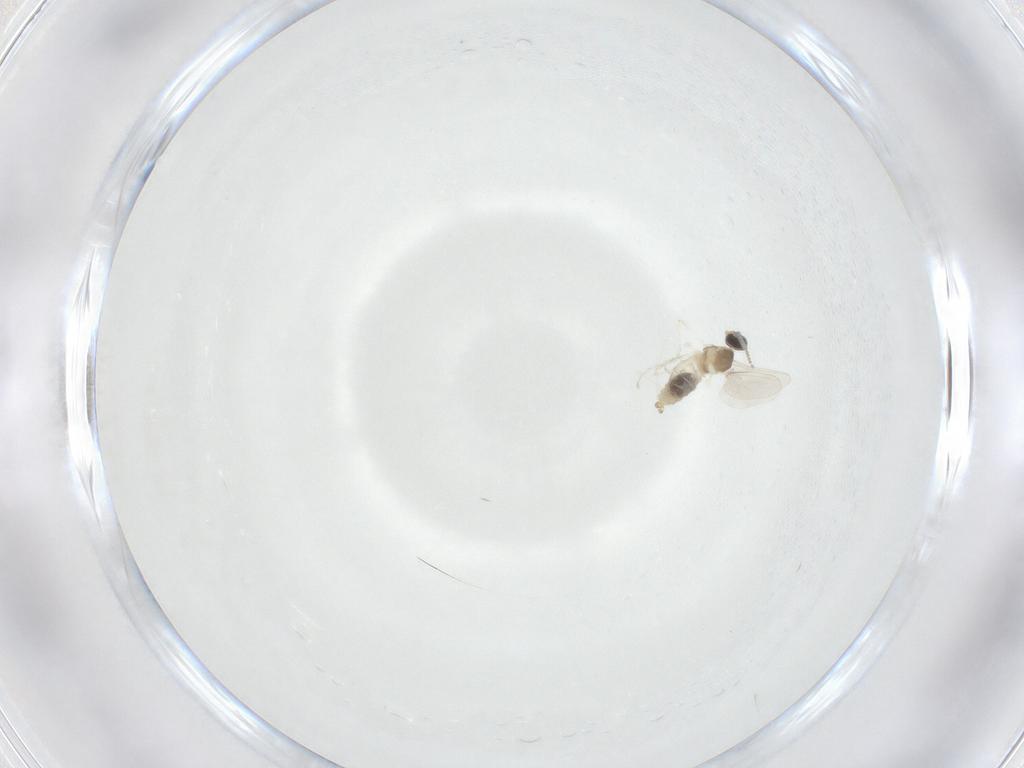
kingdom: Animalia
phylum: Arthropoda
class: Insecta
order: Diptera
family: Cecidomyiidae
